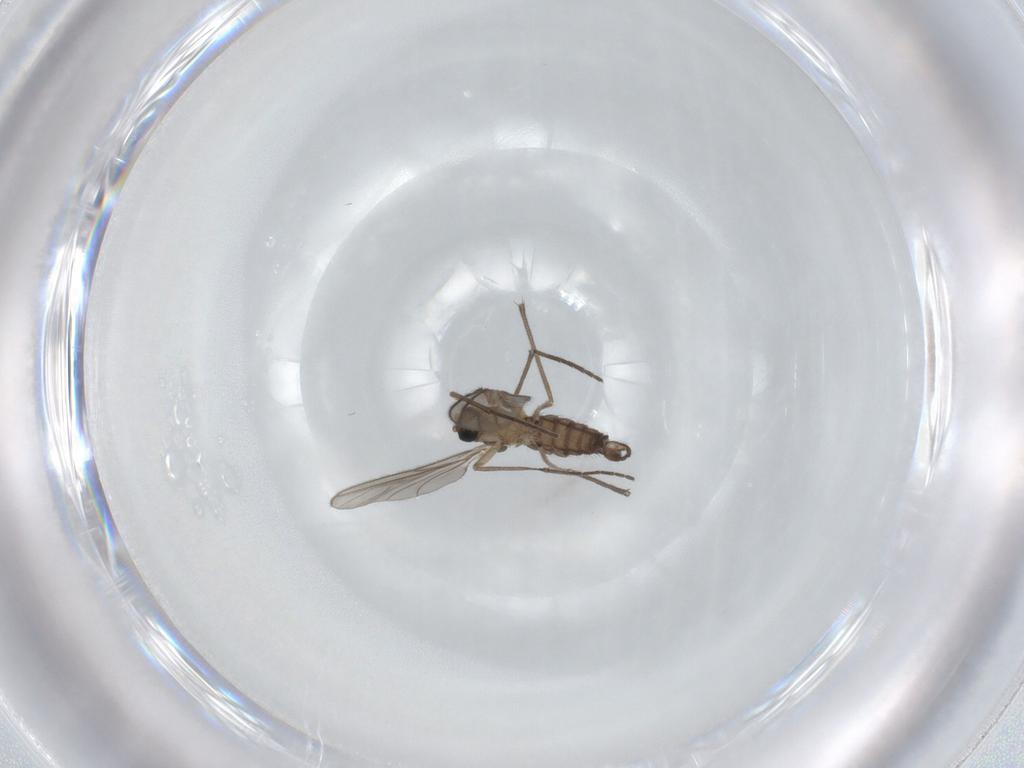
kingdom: Animalia
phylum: Arthropoda
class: Insecta
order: Diptera
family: Sciaridae
